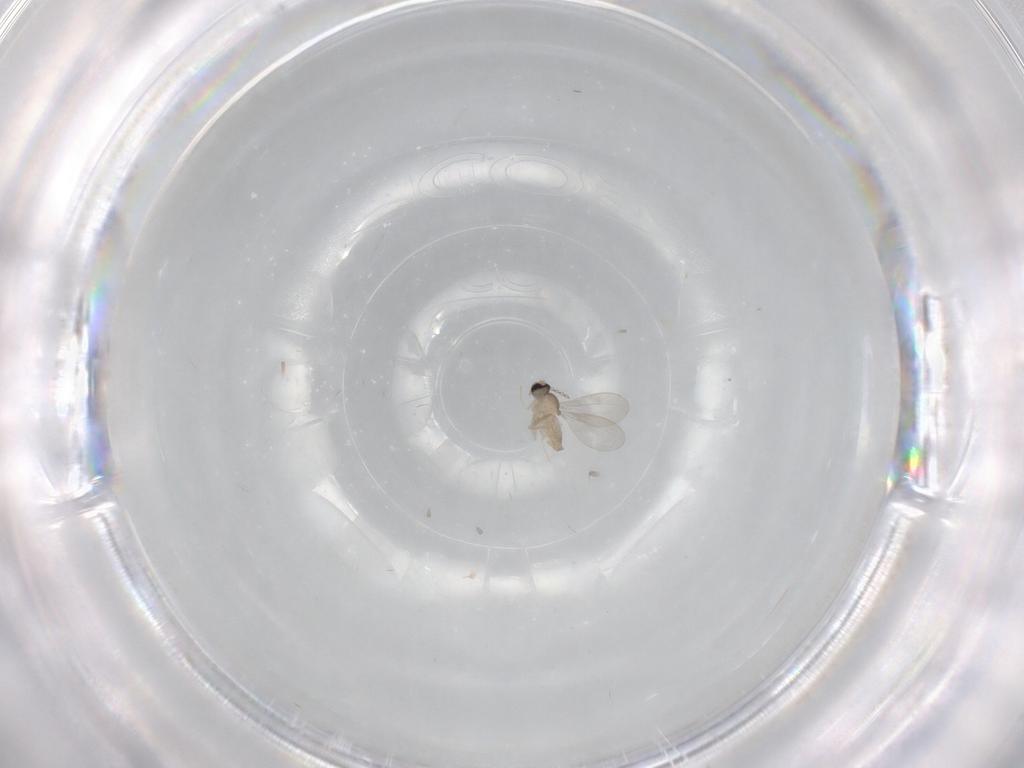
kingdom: Animalia
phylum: Arthropoda
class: Insecta
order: Diptera
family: Cecidomyiidae
